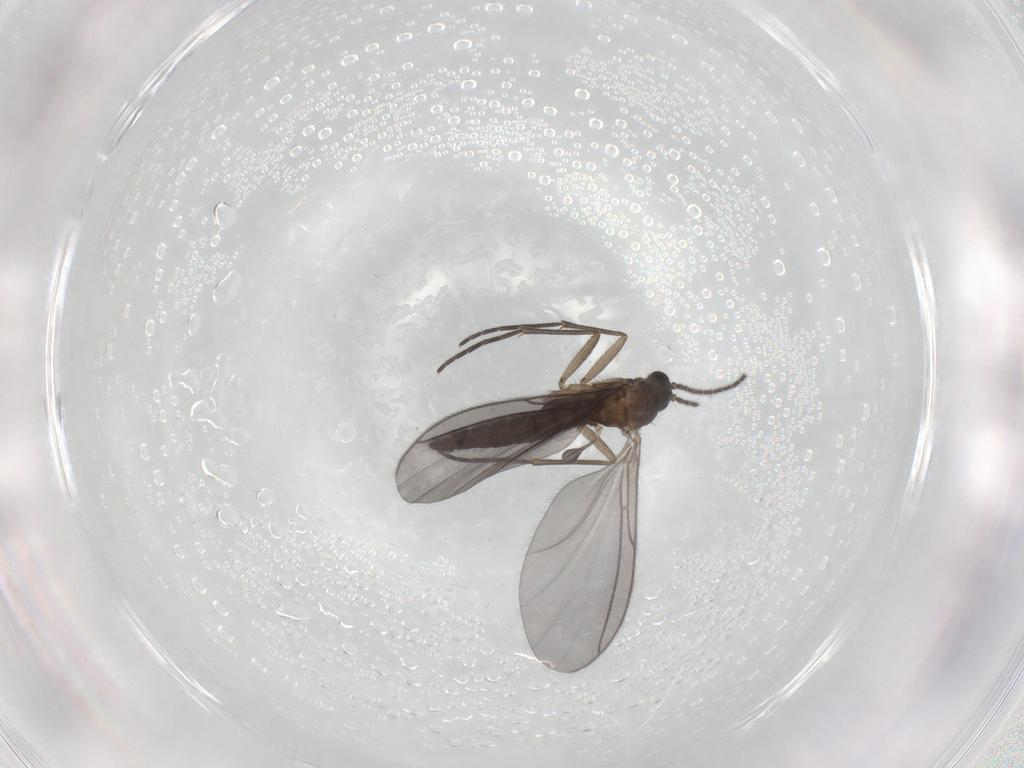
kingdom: Animalia
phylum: Arthropoda
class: Insecta
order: Diptera
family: Sciaridae
